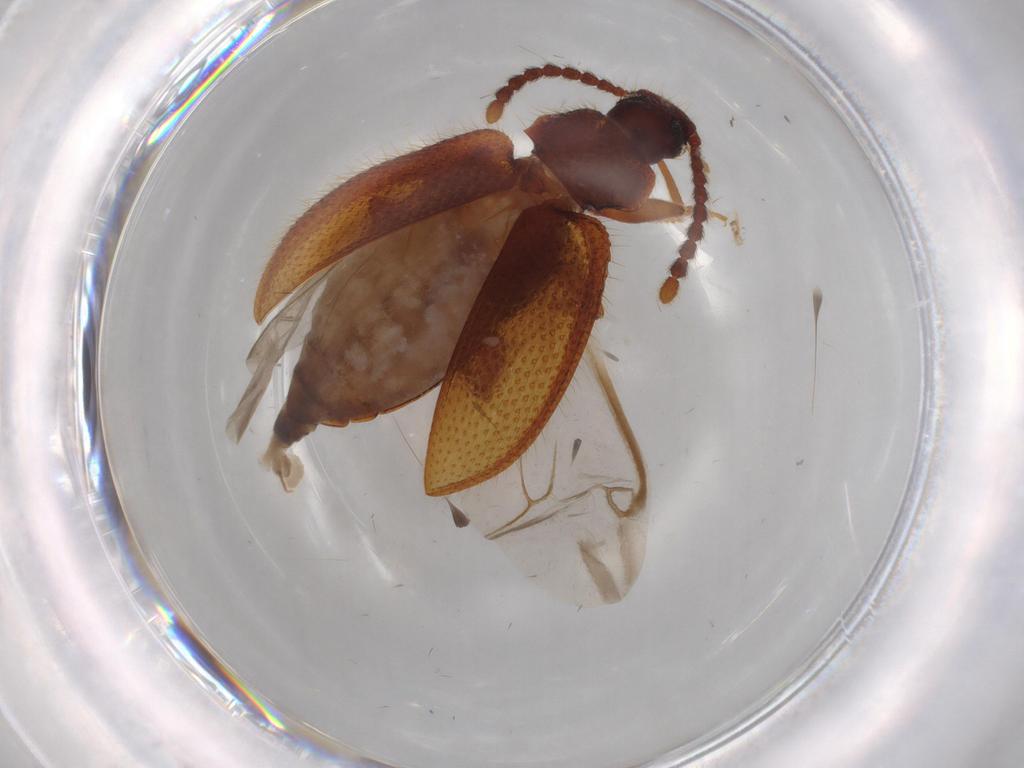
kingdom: Animalia
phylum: Arthropoda
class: Insecta
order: Coleoptera
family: Tenebrionidae
